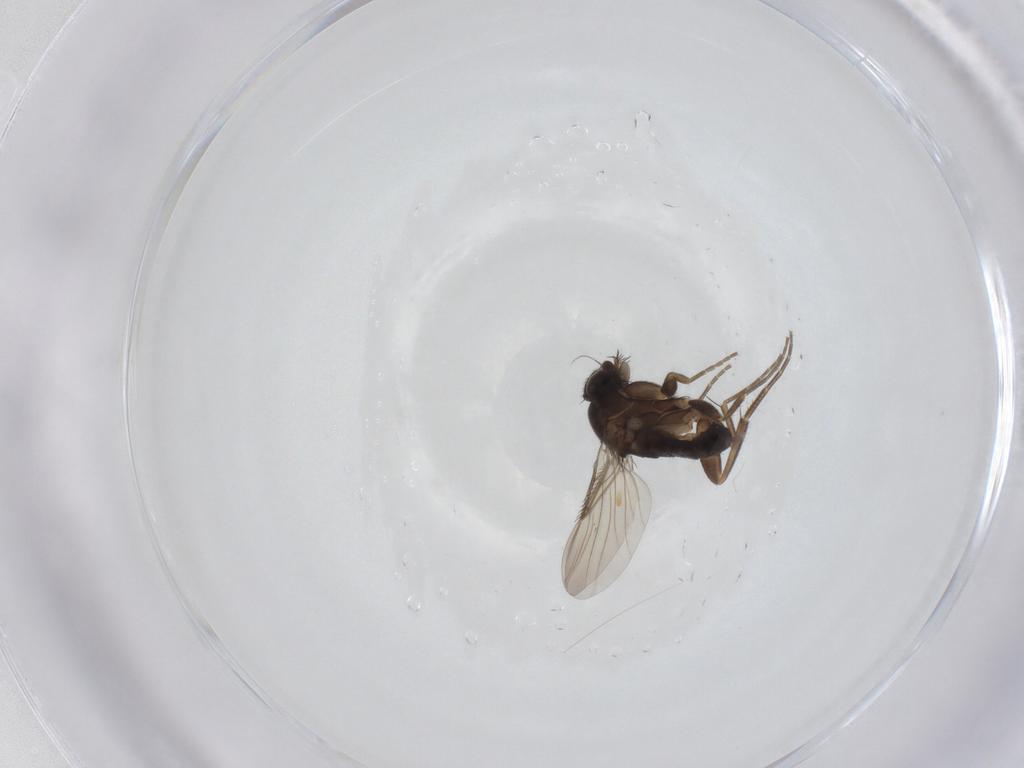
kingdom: Animalia
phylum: Arthropoda
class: Insecta
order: Diptera
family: Phoridae
